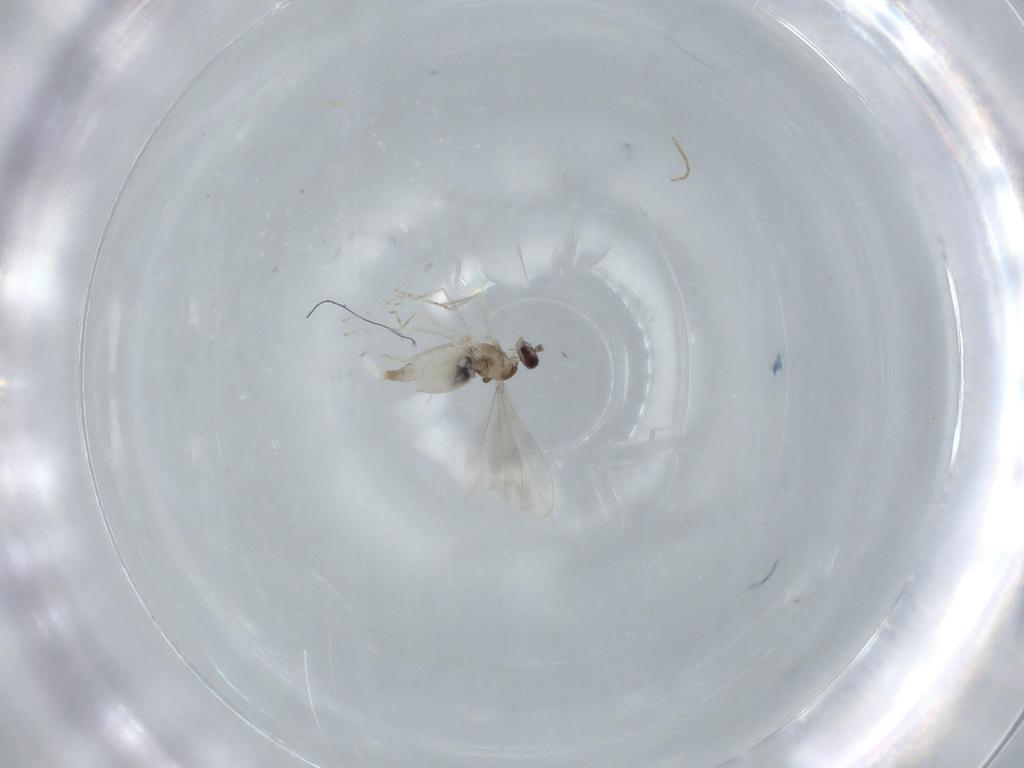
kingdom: Animalia
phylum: Arthropoda
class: Insecta
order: Diptera
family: Cecidomyiidae
